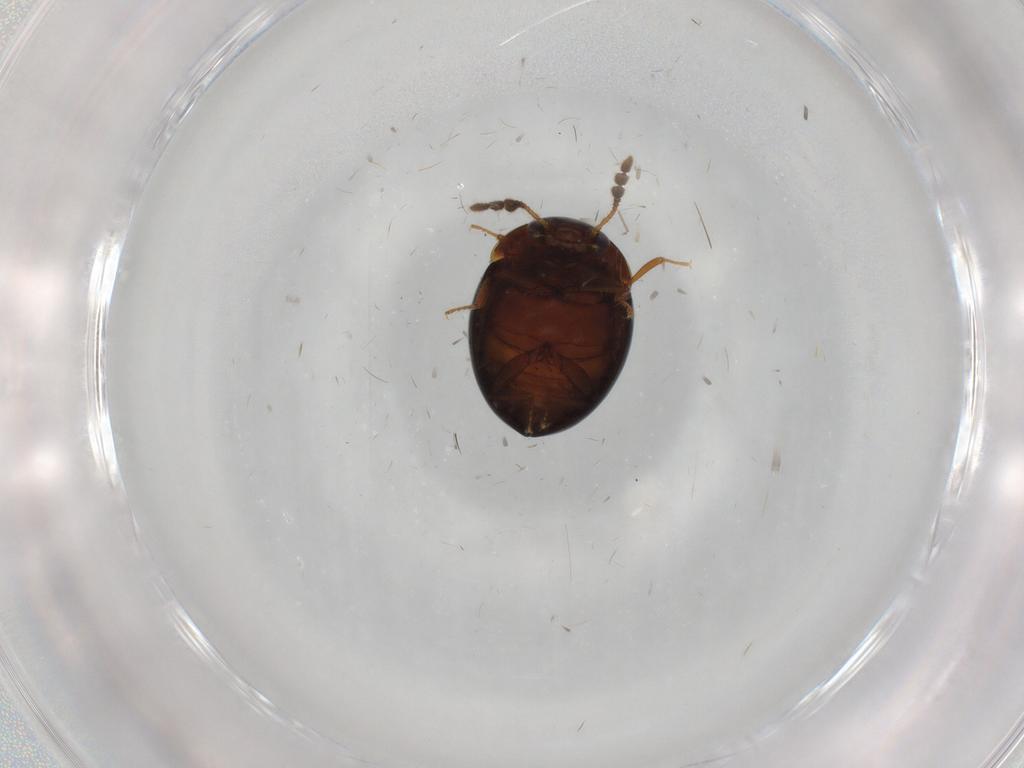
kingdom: Animalia
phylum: Arthropoda
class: Insecta
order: Coleoptera
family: Leiodidae
